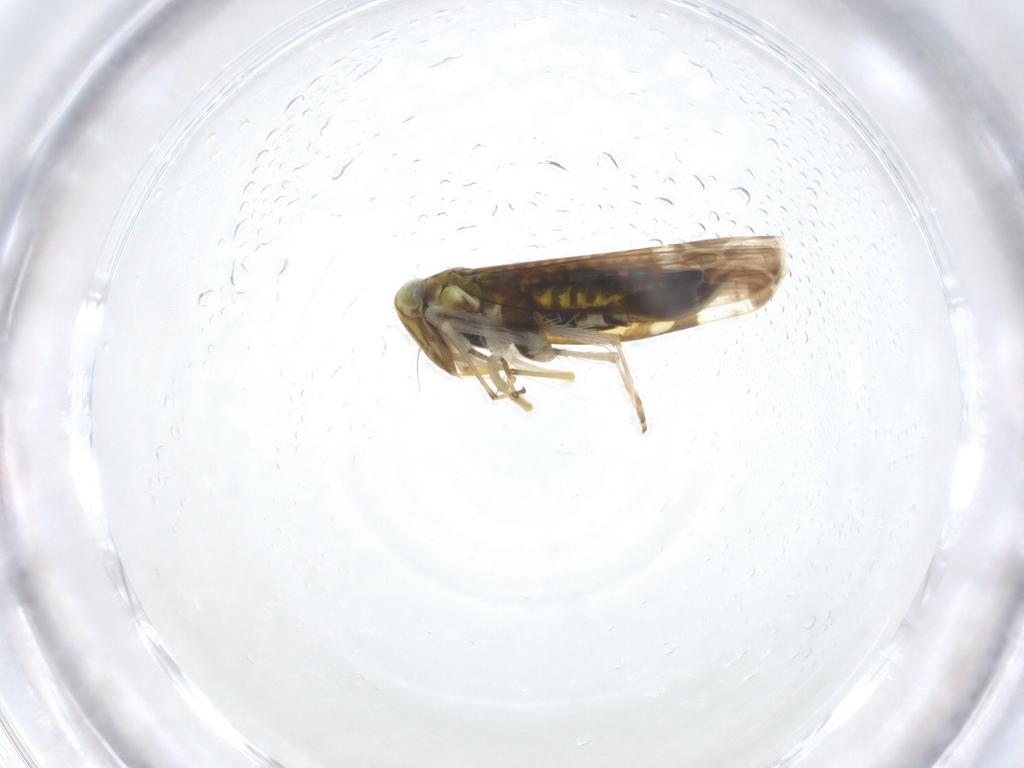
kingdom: Animalia
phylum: Arthropoda
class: Insecta
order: Hemiptera
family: Cicadellidae
